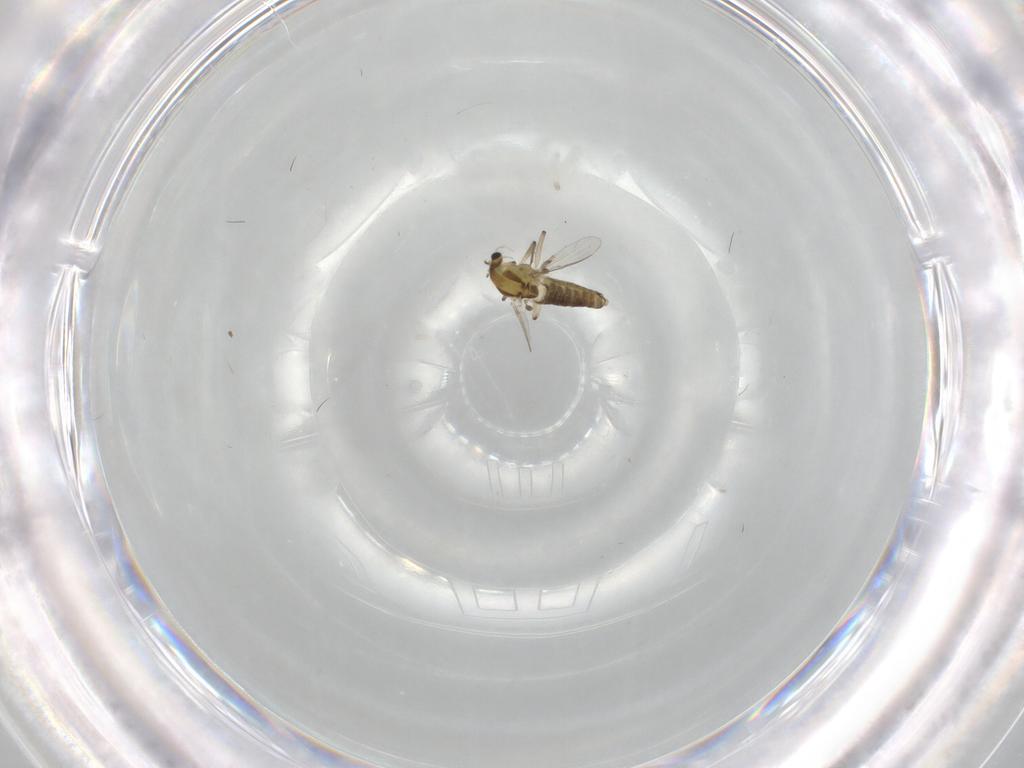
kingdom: Animalia
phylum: Arthropoda
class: Insecta
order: Diptera
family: Chironomidae
